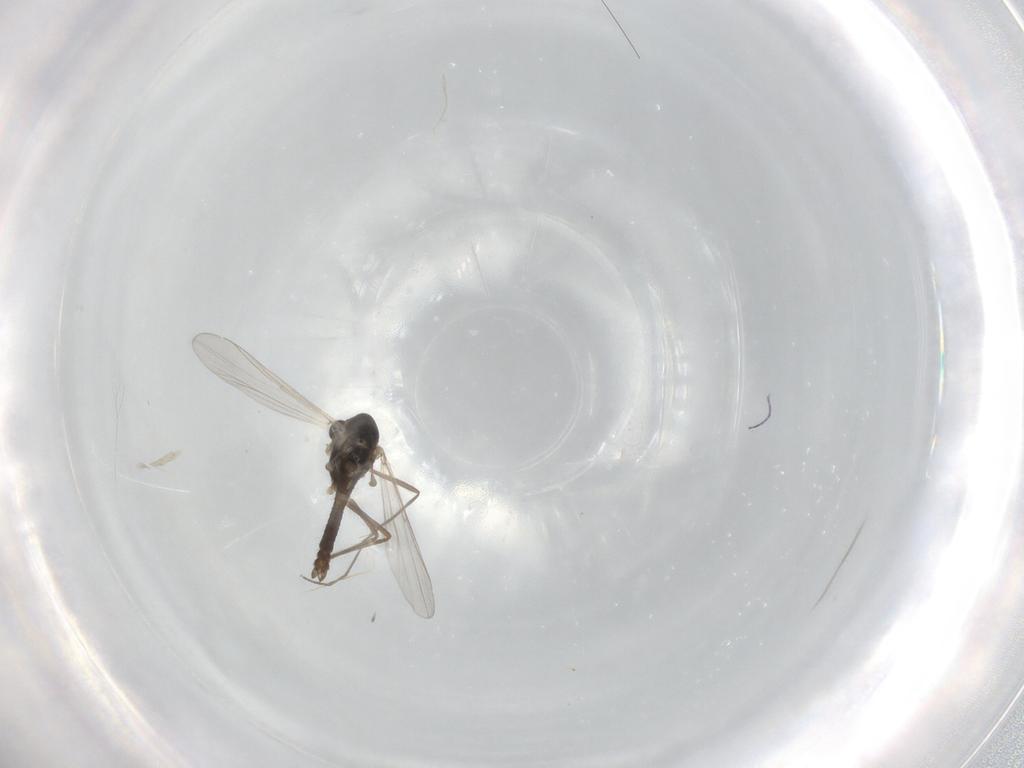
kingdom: Animalia
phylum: Arthropoda
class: Insecta
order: Diptera
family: Chironomidae
